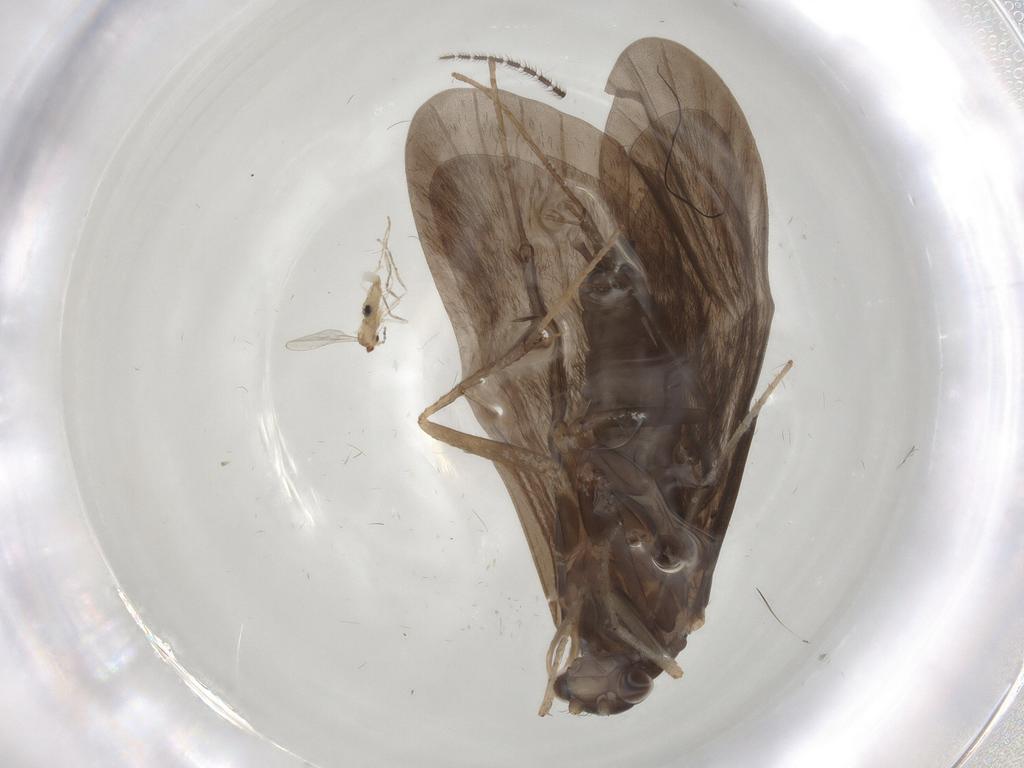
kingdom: Animalia
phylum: Arthropoda
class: Insecta
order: Trichoptera
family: Hydropsychidae
